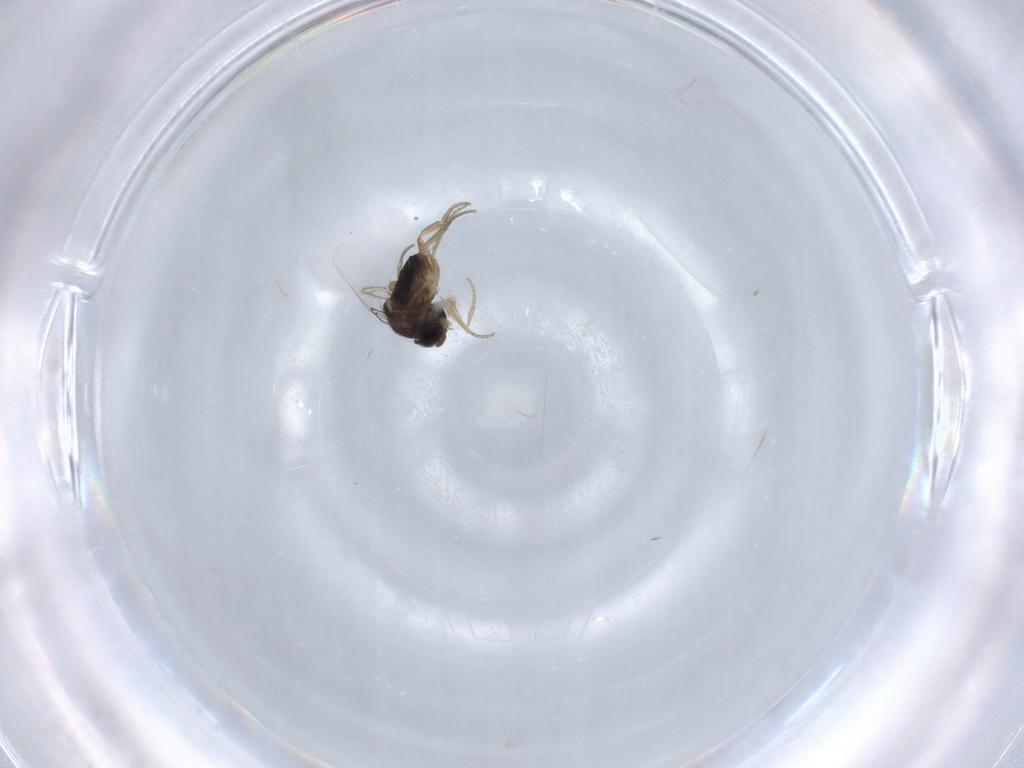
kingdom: Animalia
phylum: Arthropoda
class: Insecta
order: Diptera
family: Phoridae
